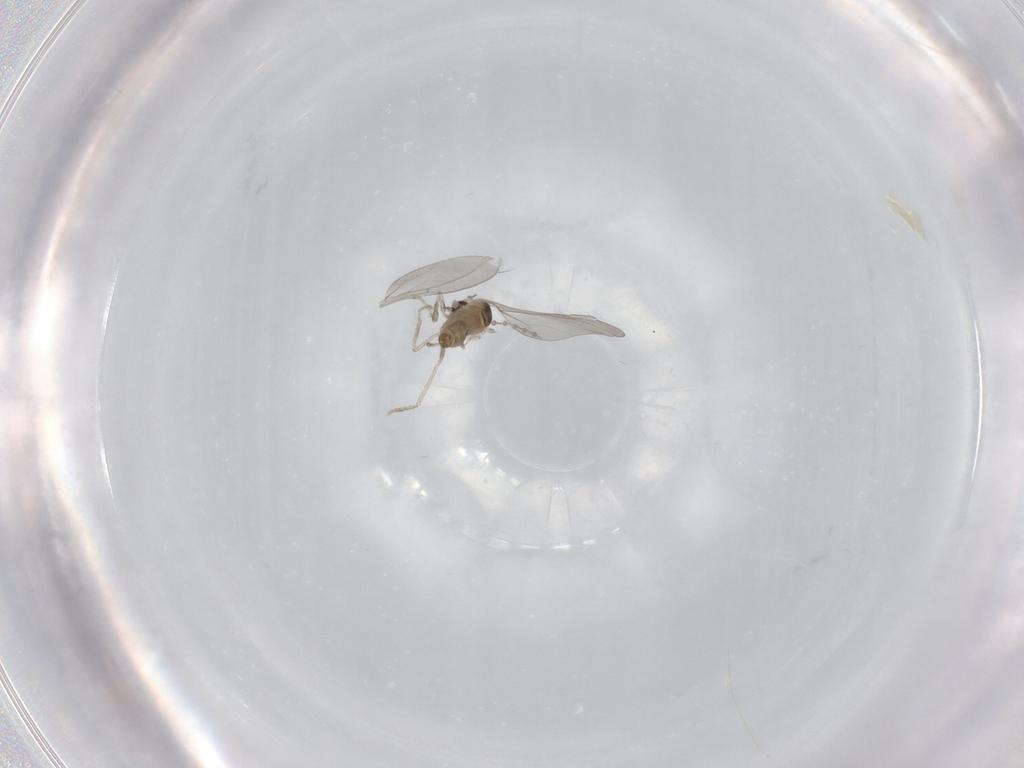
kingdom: Animalia
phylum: Arthropoda
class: Insecta
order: Diptera
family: Cecidomyiidae
